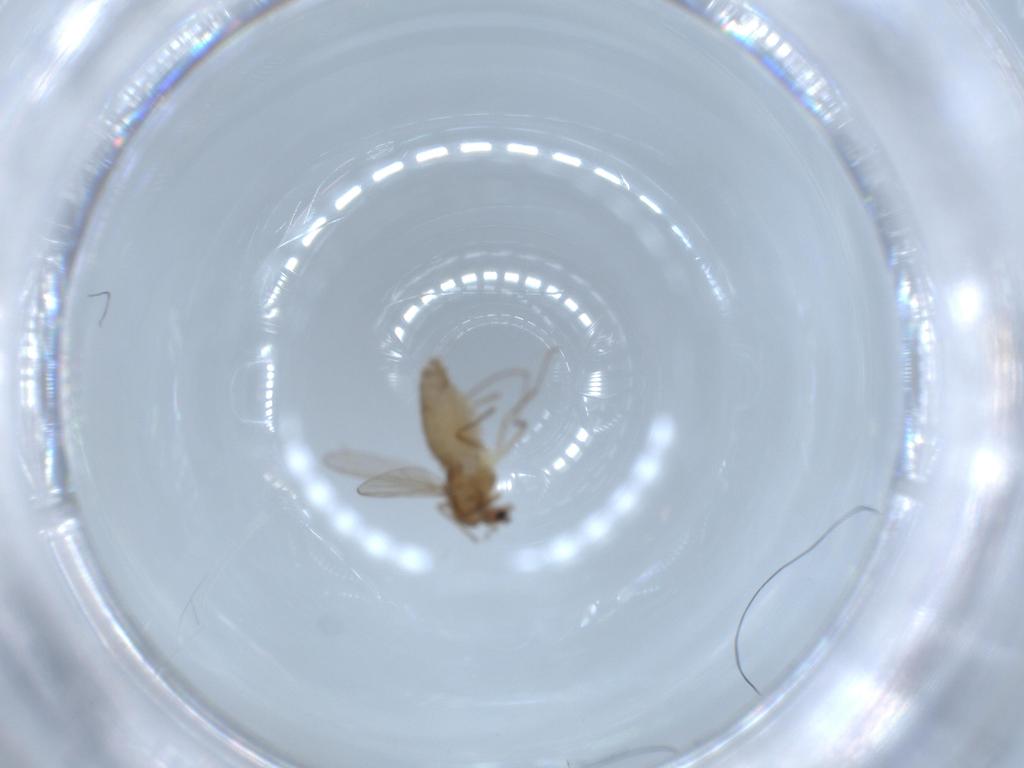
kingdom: Animalia
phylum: Arthropoda
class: Insecta
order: Diptera
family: Chironomidae
